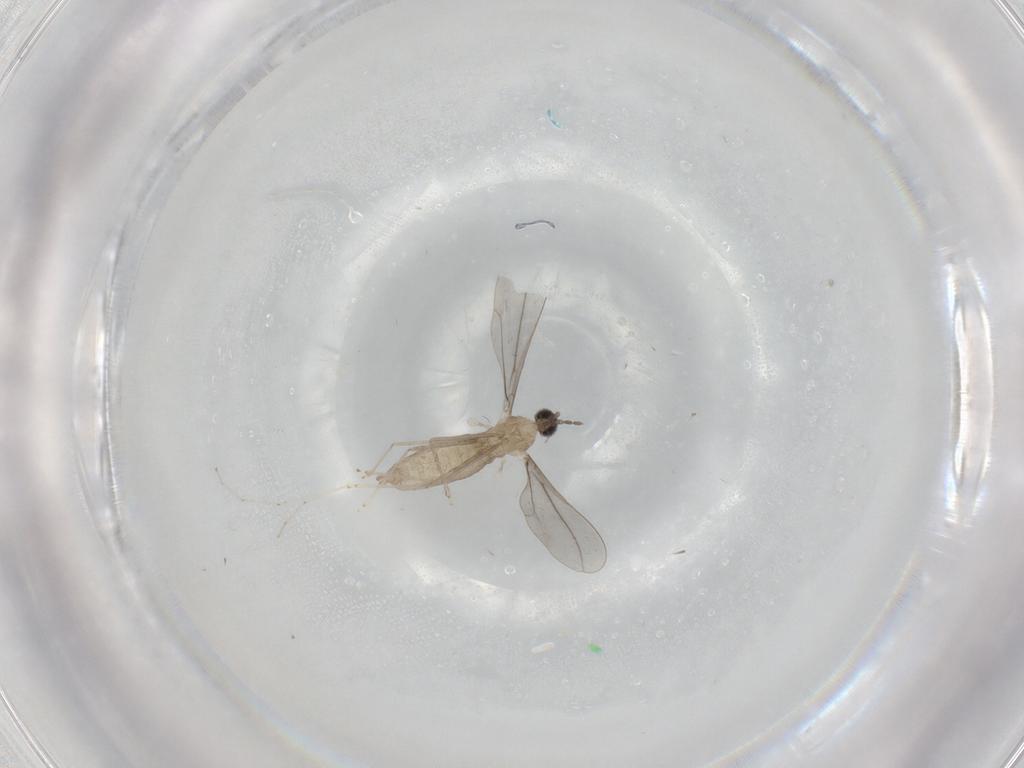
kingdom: Animalia
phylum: Arthropoda
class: Insecta
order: Diptera
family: Cecidomyiidae
